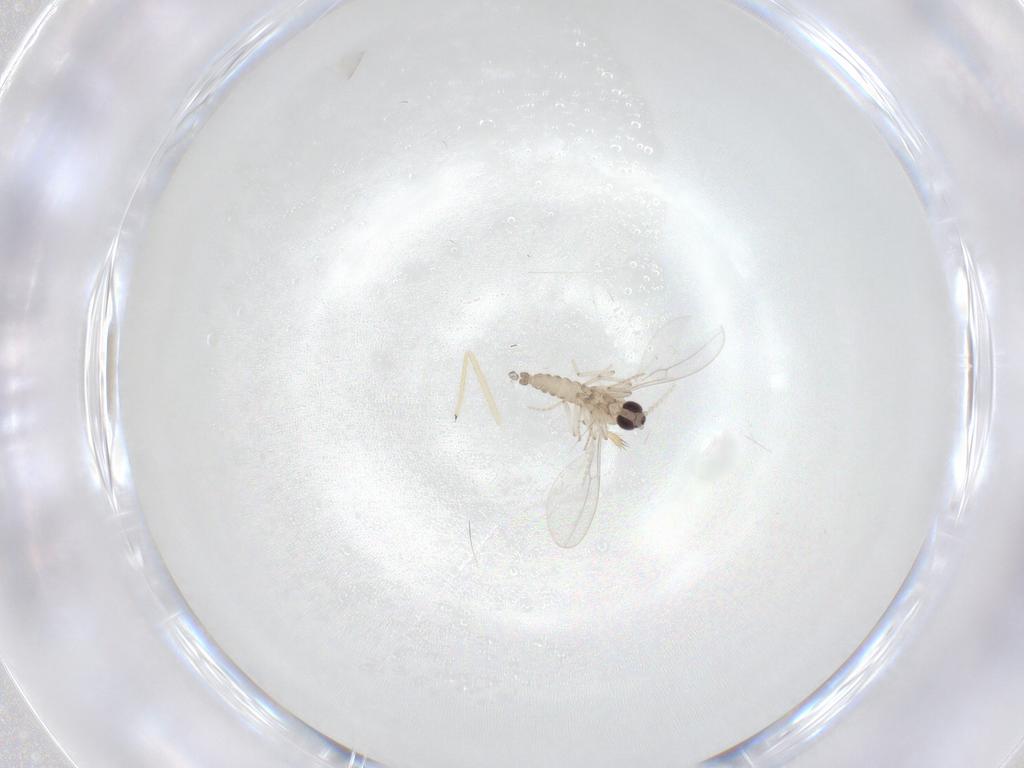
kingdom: Animalia
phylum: Arthropoda
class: Insecta
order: Diptera
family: Cecidomyiidae
